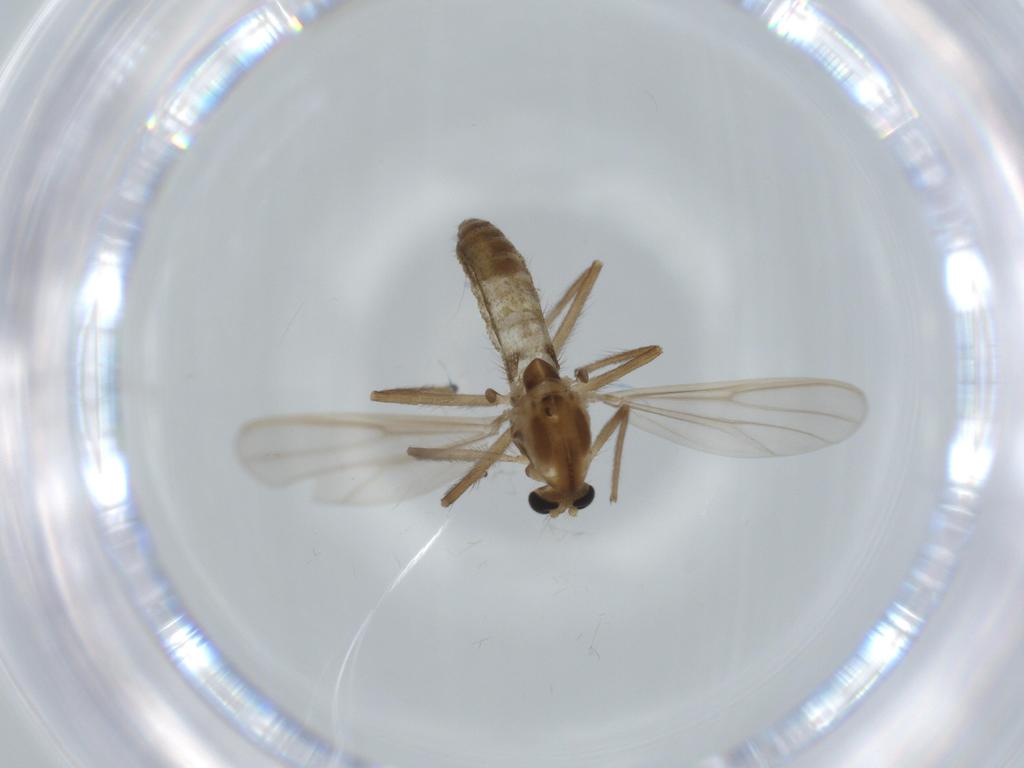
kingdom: Animalia
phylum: Arthropoda
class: Insecta
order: Diptera
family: Chironomidae
